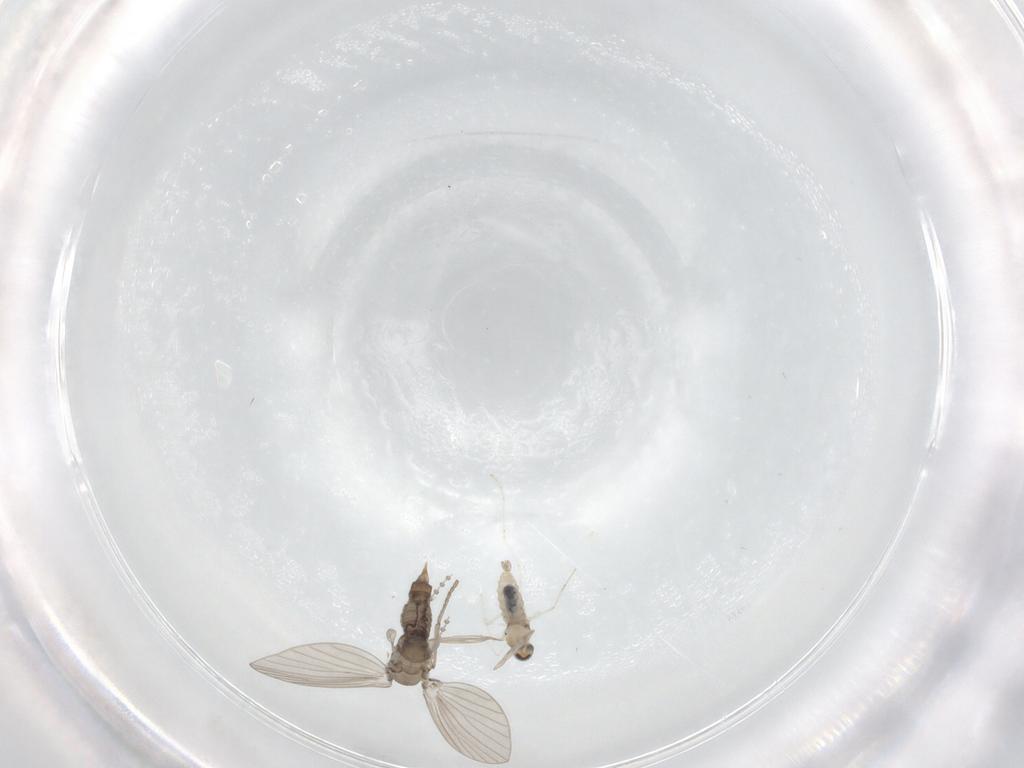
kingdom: Animalia
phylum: Arthropoda
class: Insecta
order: Diptera
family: Psychodidae
